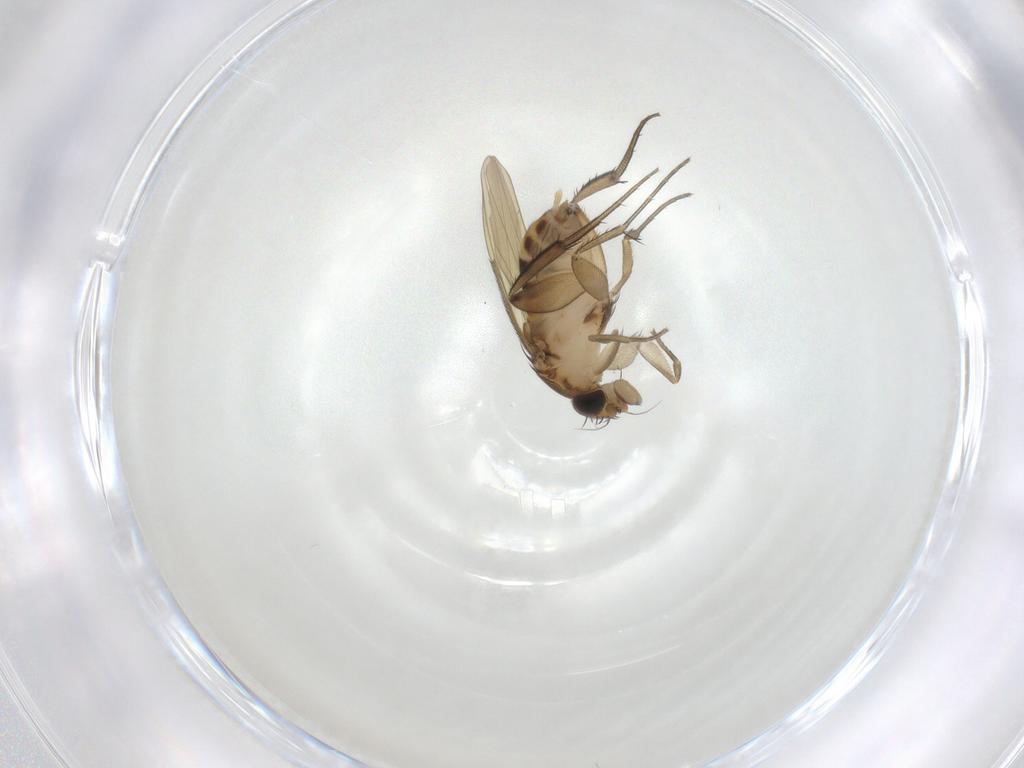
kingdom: Animalia
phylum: Arthropoda
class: Insecta
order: Diptera
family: Phoridae
